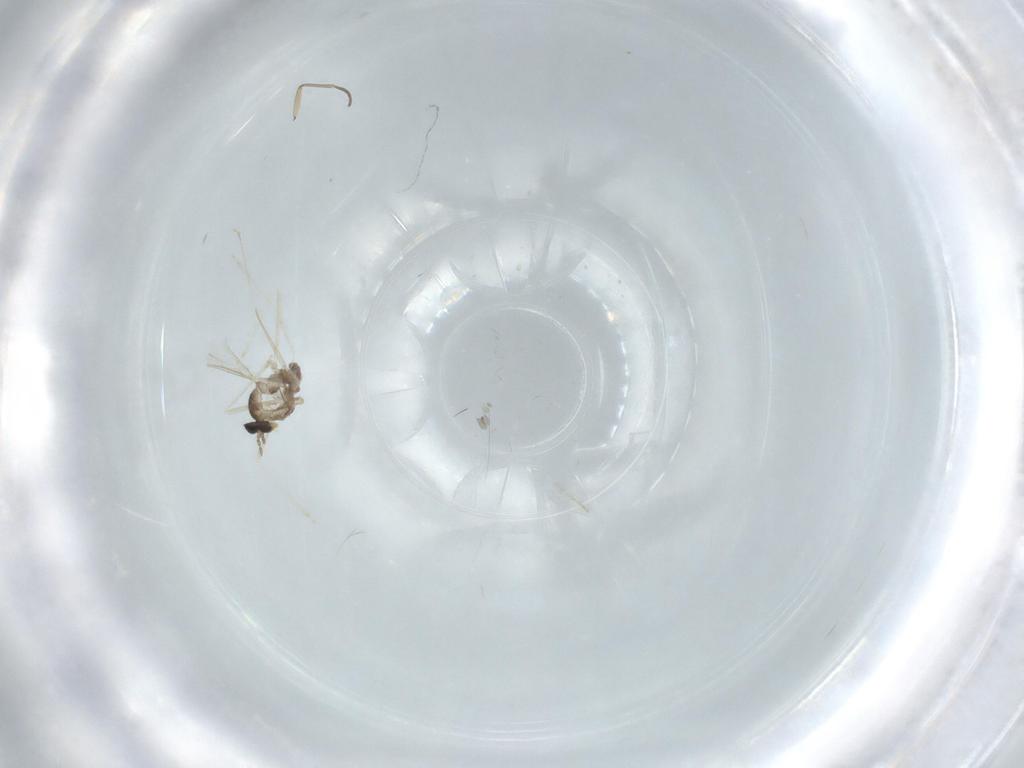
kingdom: Animalia
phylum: Arthropoda
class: Insecta
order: Diptera
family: Cecidomyiidae
